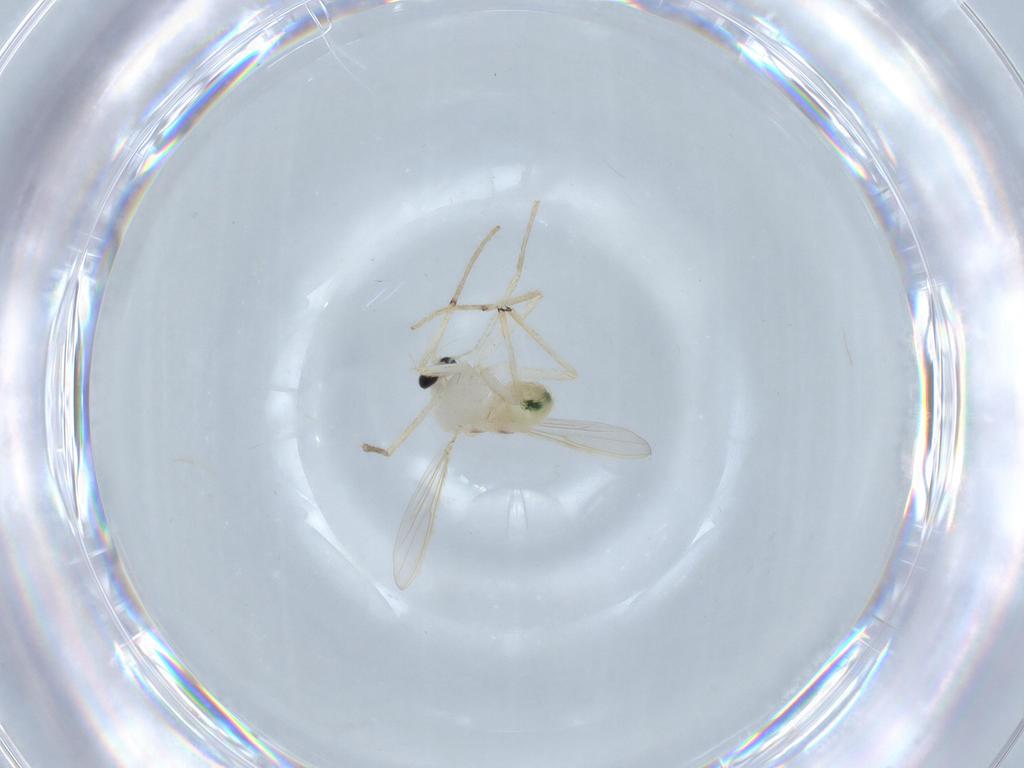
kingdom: Animalia
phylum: Arthropoda
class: Insecta
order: Diptera
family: Chironomidae
